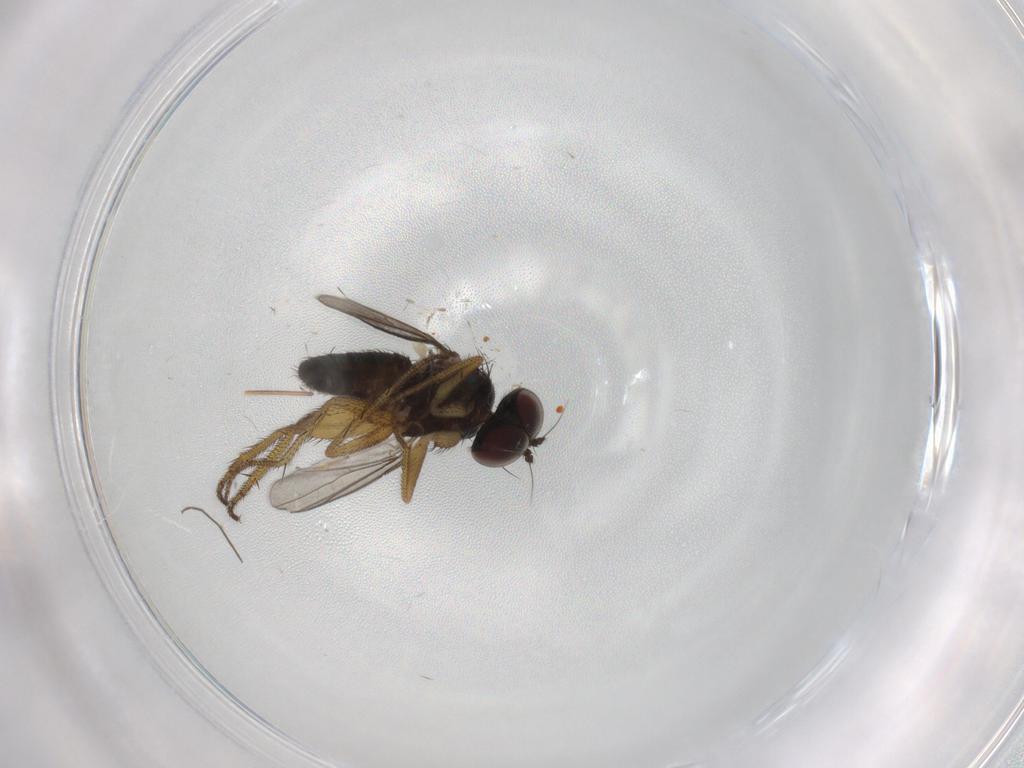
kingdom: Animalia
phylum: Arthropoda
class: Insecta
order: Diptera
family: Dolichopodidae
